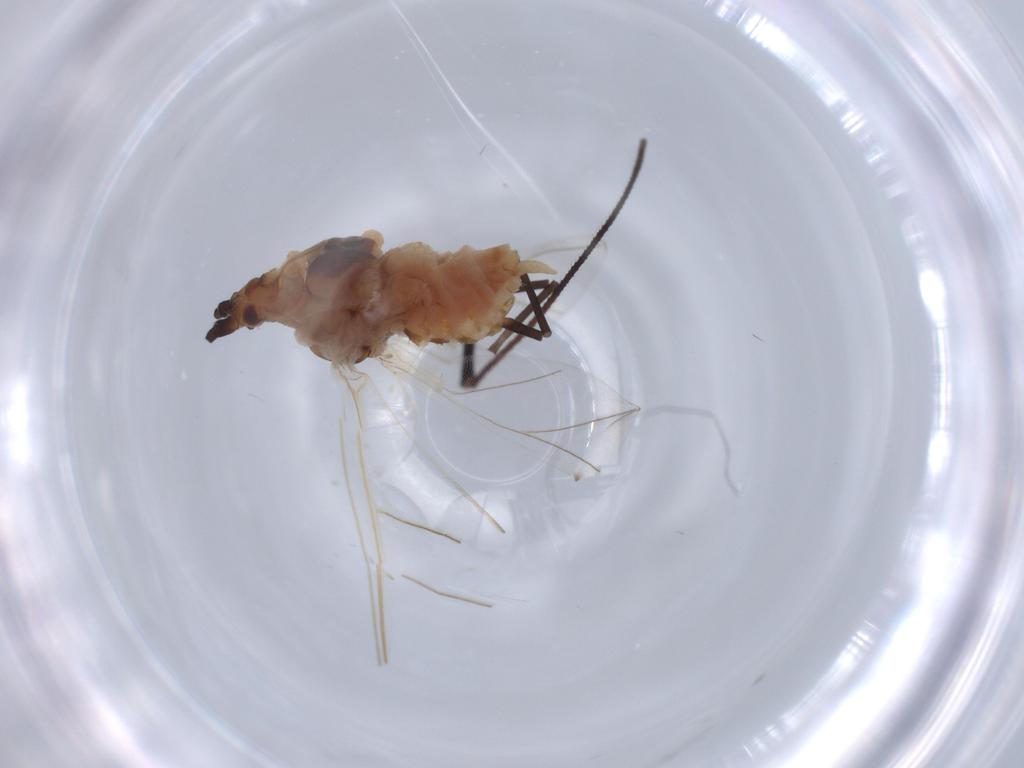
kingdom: Animalia
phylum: Arthropoda
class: Insecta
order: Hemiptera
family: Aphididae
